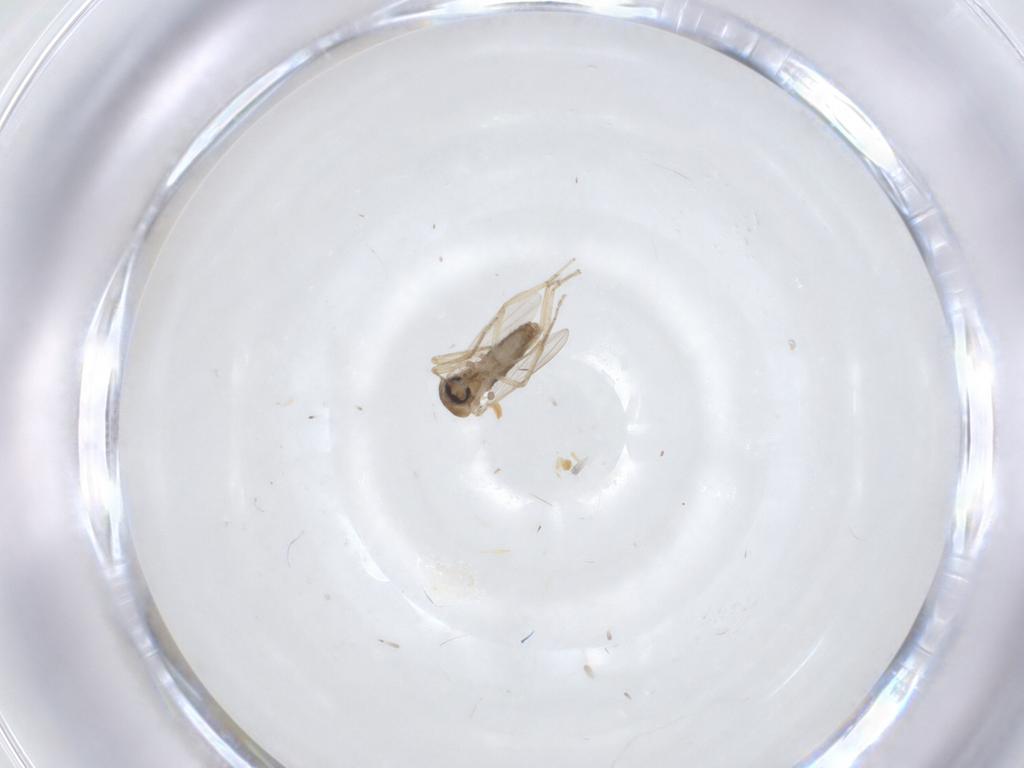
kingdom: Animalia
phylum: Arthropoda
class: Insecta
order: Diptera
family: Ceratopogonidae
